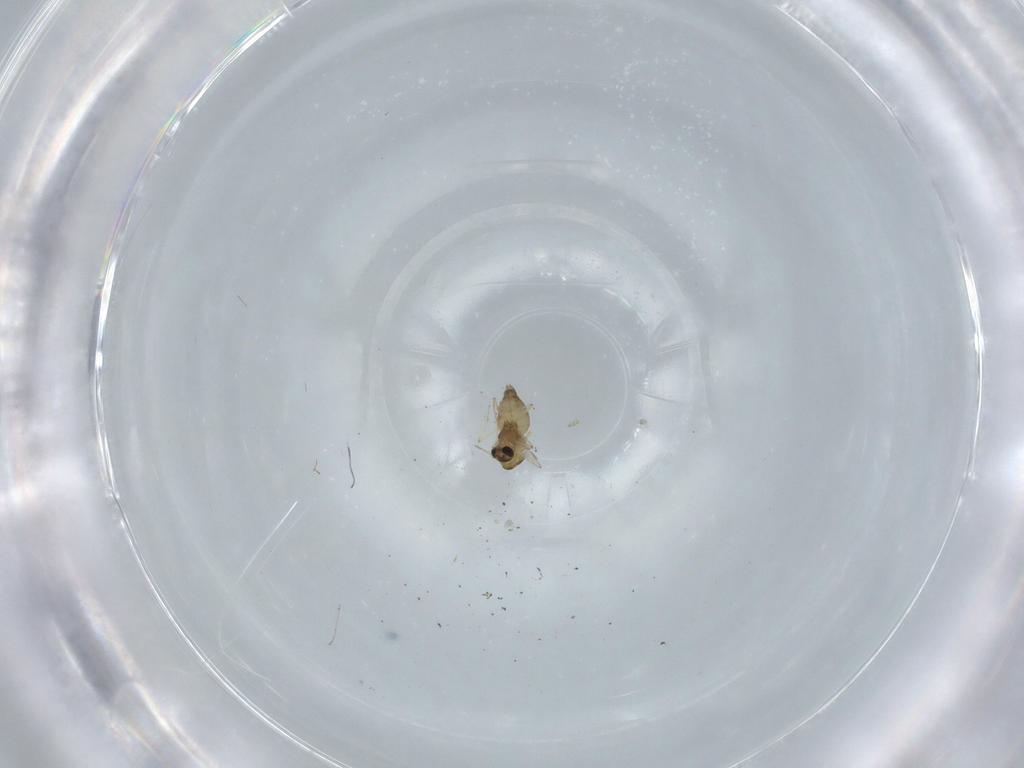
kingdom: Animalia
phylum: Arthropoda
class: Insecta
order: Diptera
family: Chironomidae
